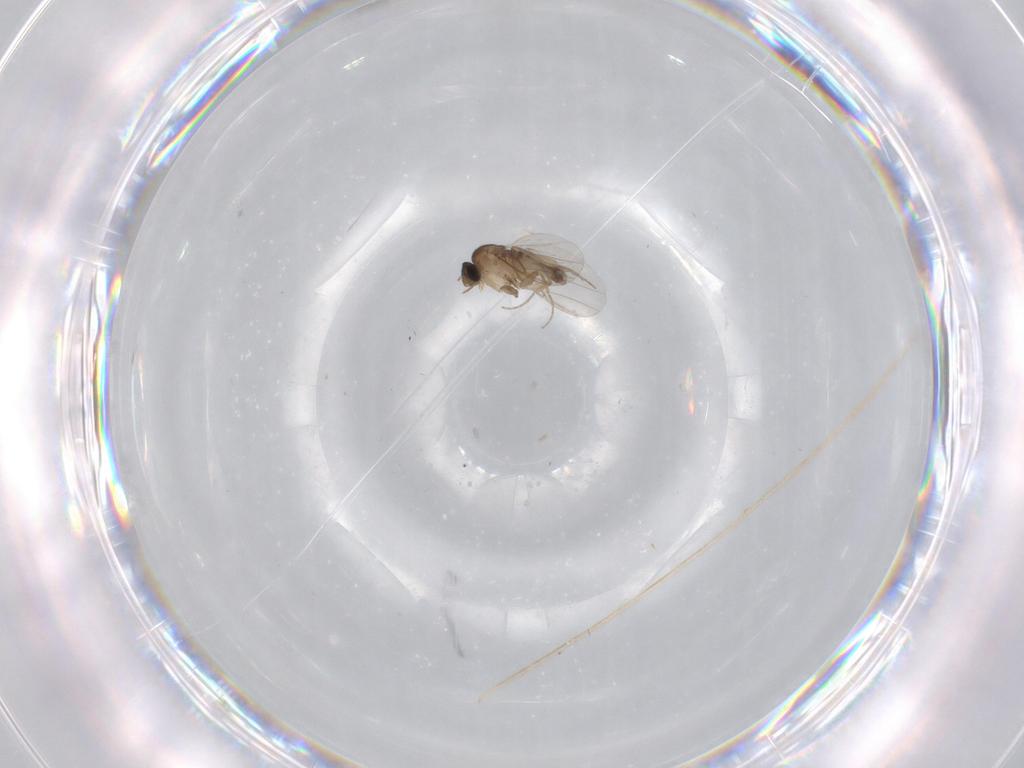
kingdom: Animalia
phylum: Arthropoda
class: Insecta
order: Diptera
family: Phoridae
